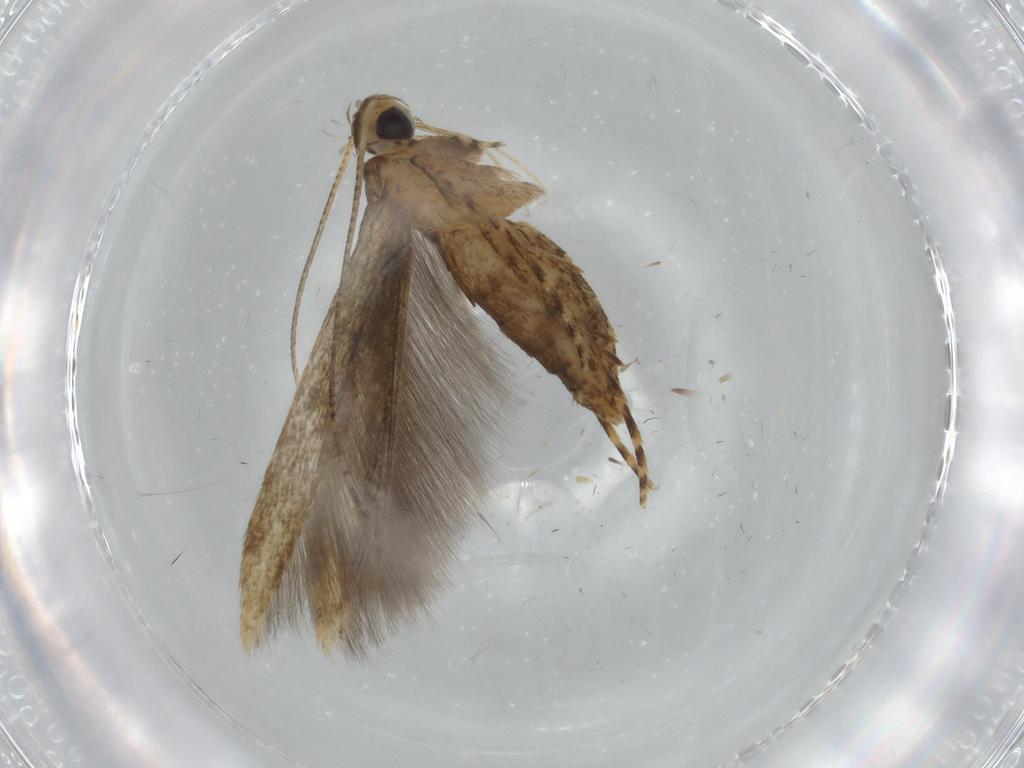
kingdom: Animalia
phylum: Arthropoda
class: Insecta
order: Lepidoptera
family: Batrachedridae
